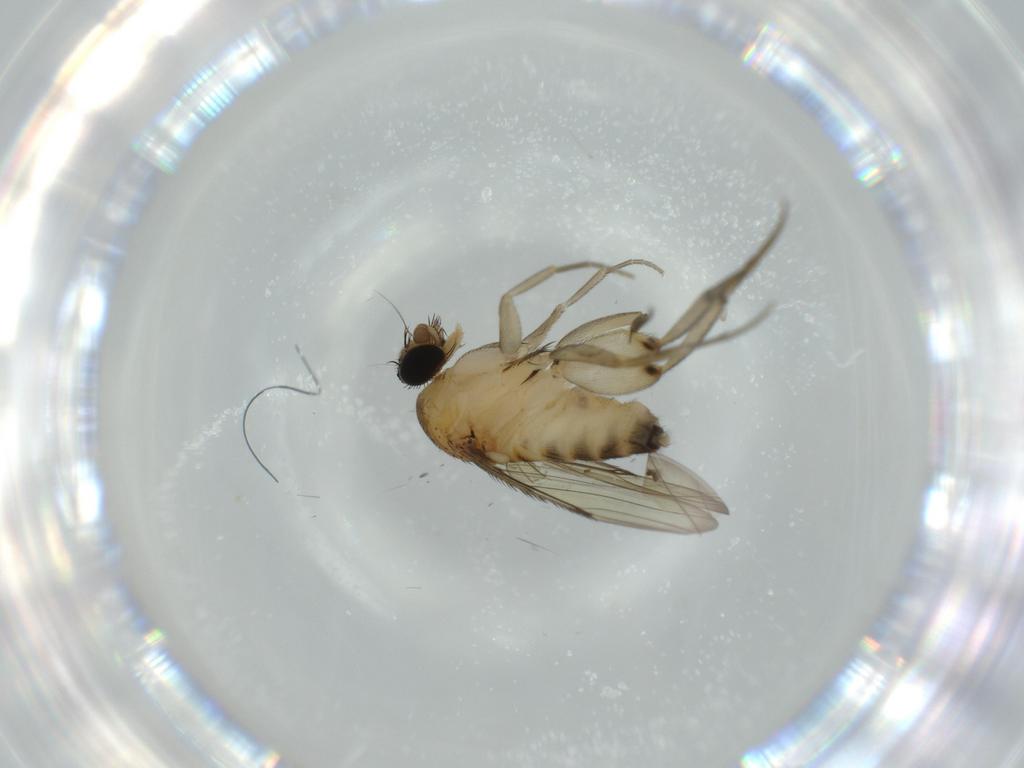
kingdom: Animalia
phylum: Arthropoda
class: Insecta
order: Diptera
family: Phoridae
